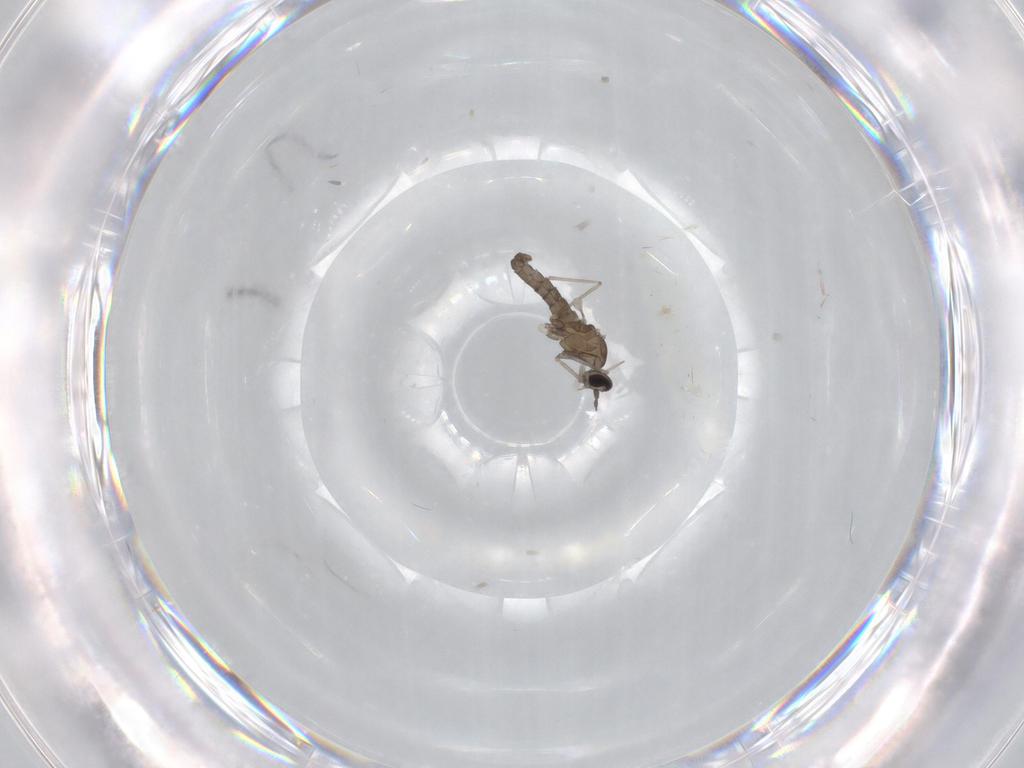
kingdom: Animalia
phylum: Arthropoda
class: Insecta
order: Diptera
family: Cecidomyiidae
